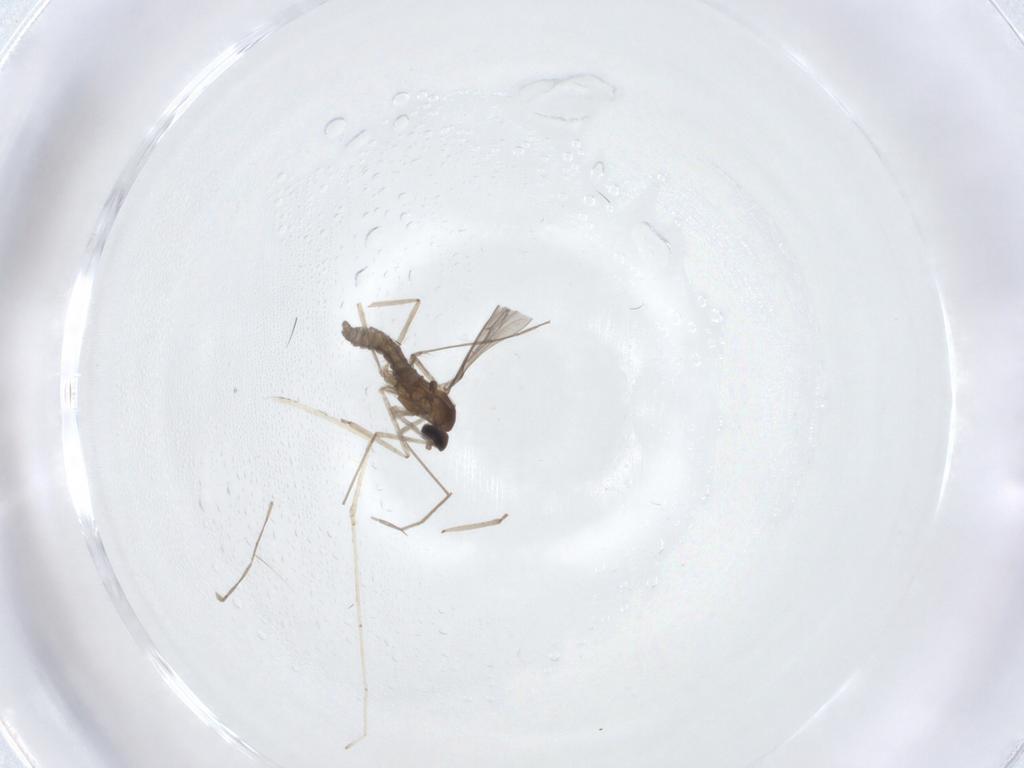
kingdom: Animalia
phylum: Arthropoda
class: Insecta
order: Diptera
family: Cecidomyiidae
